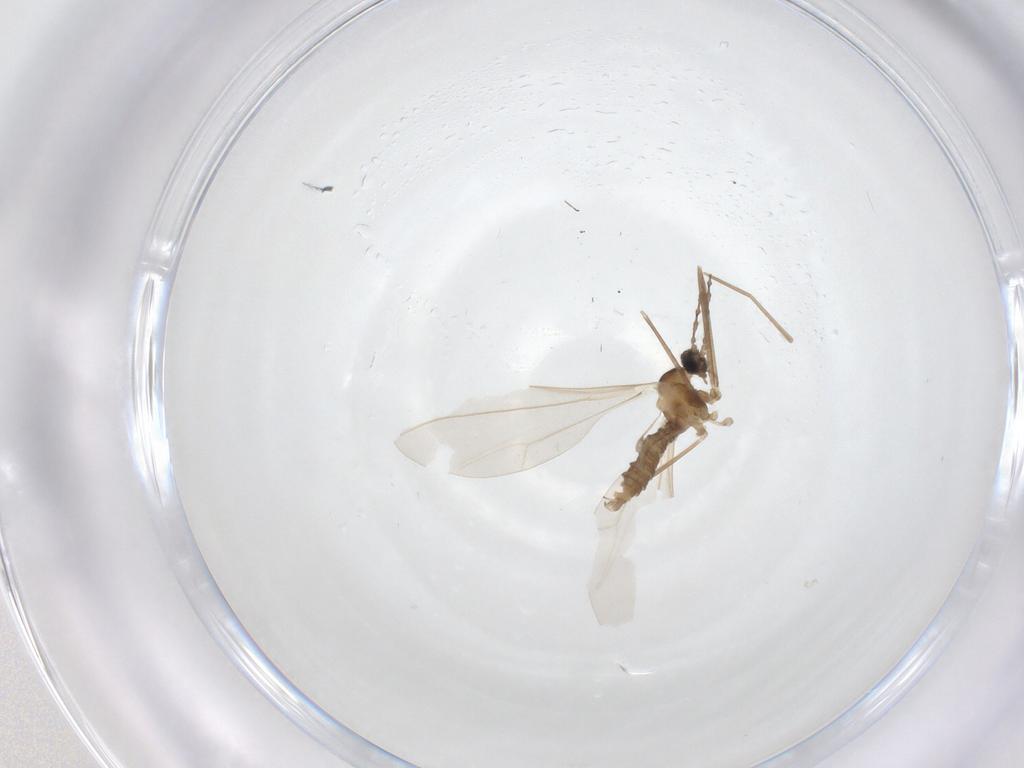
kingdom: Animalia
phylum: Arthropoda
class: Insecta
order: Diptera
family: Cecidomyiidae
